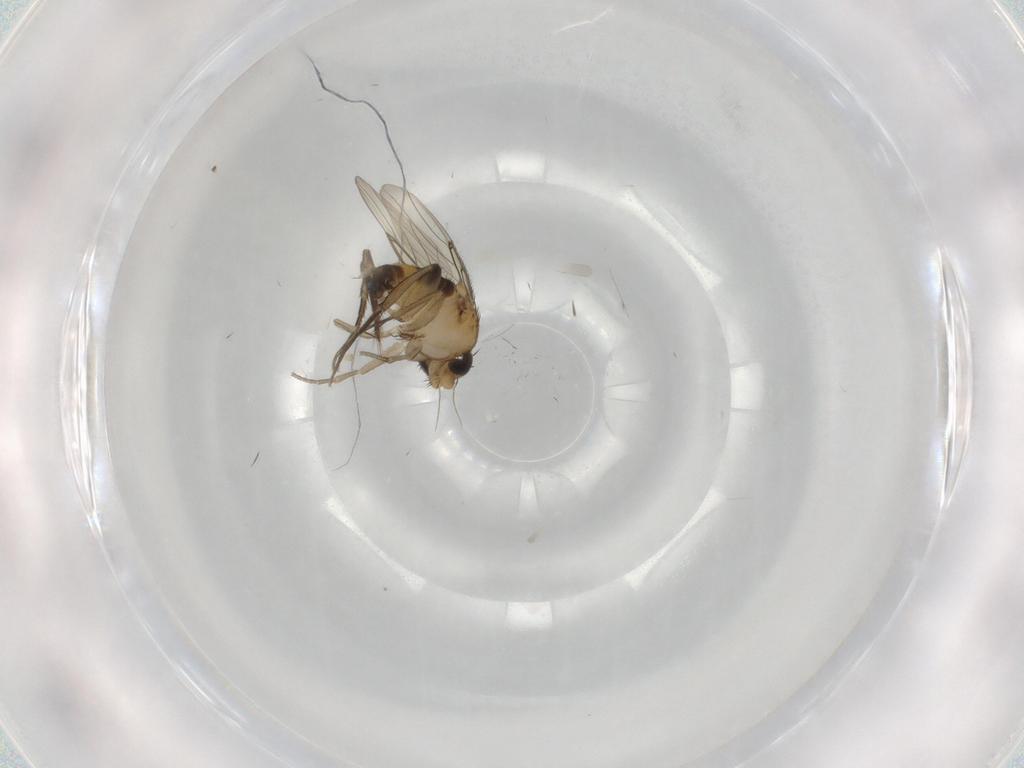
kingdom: Animalia
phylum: Arthropoda
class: Insecta
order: Diptera
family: Phoridae
